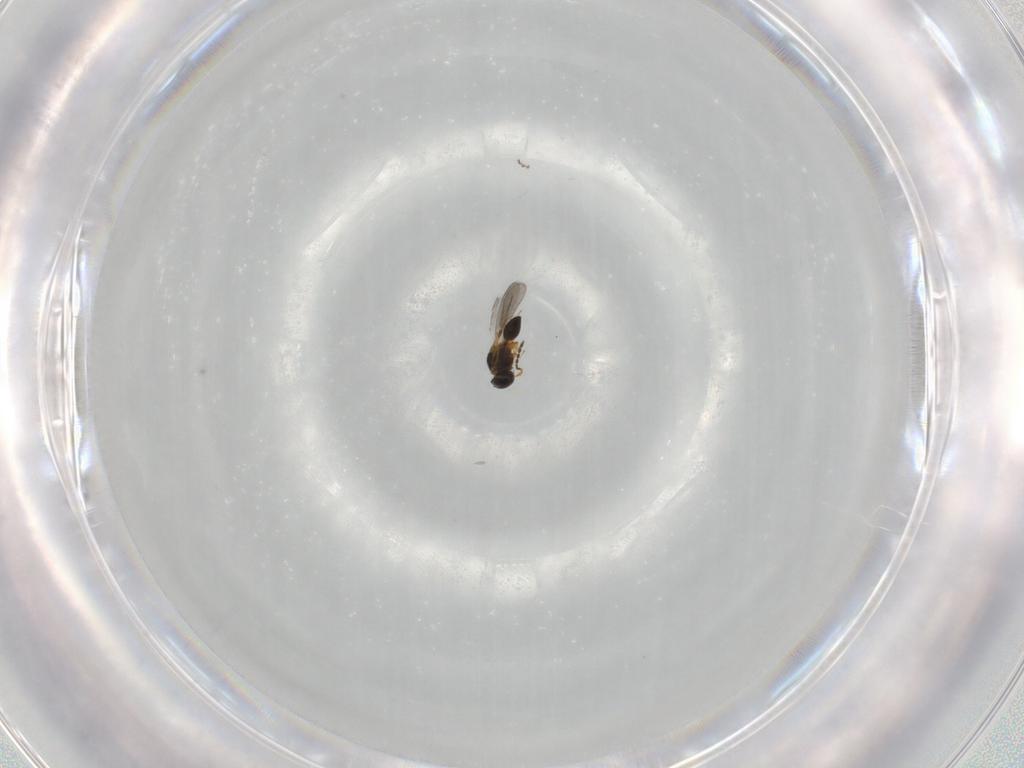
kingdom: Animalia
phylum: Arthropoda
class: Insecta
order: Hymenoptera
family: Platygastridae
